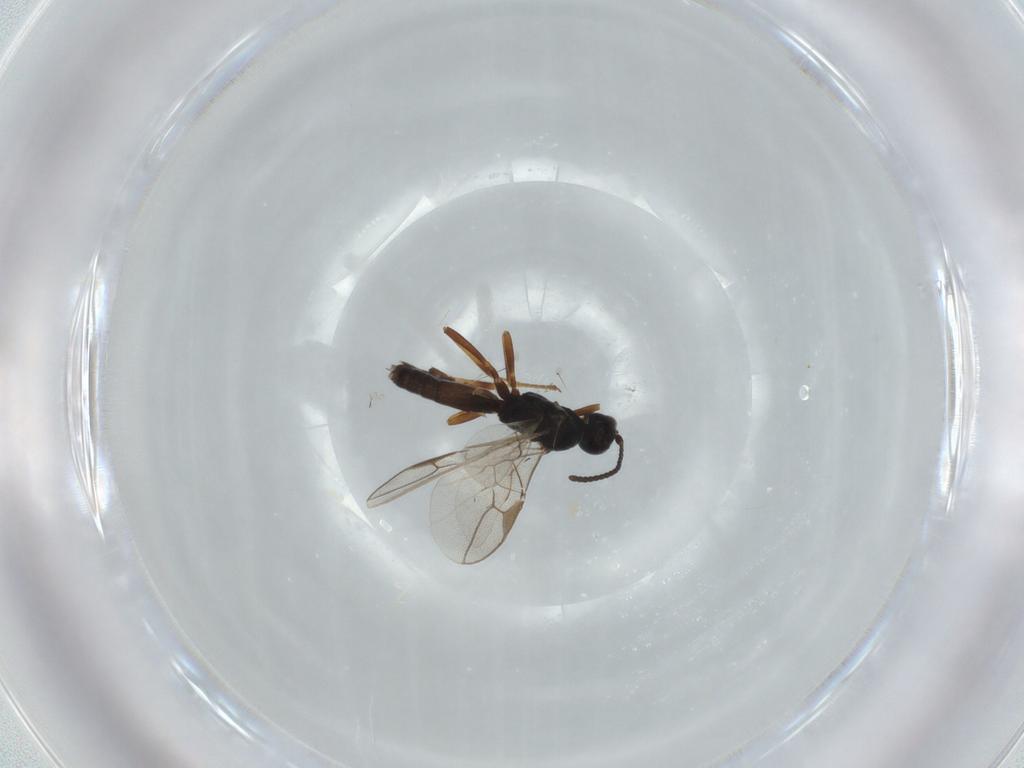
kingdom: Animalia
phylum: Arthropoda
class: Insecta
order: Hymenoptera
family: Braconidae
